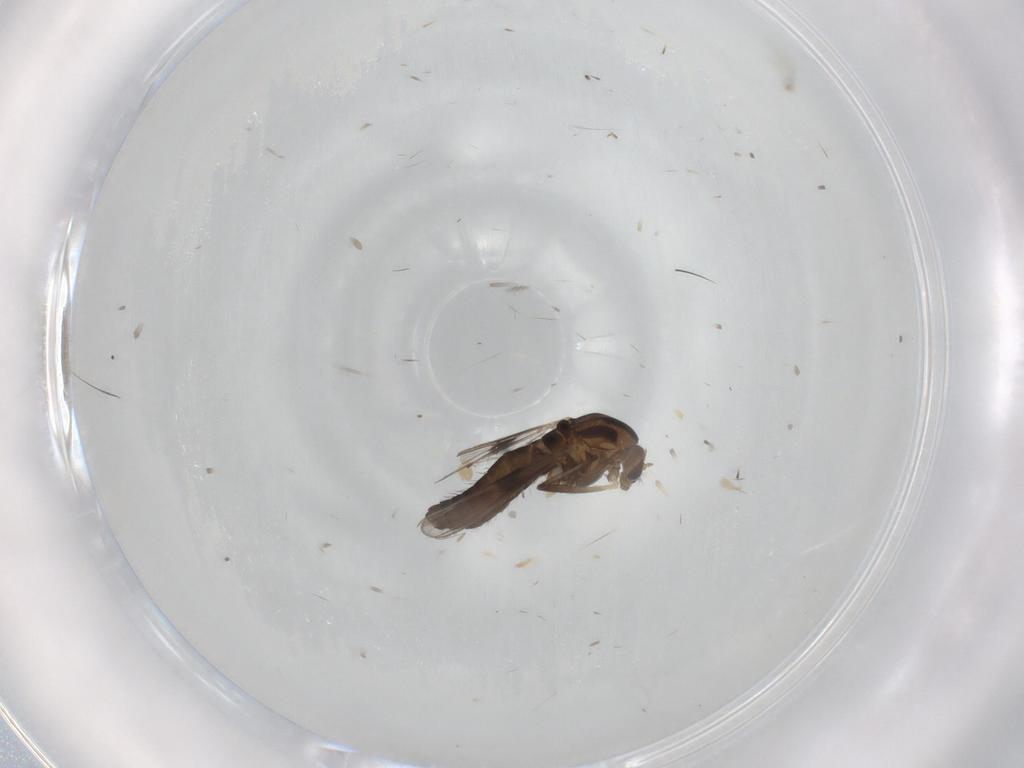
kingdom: Animalia
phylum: Arthropoda
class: Insecta
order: Diptera
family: Chironomidae
